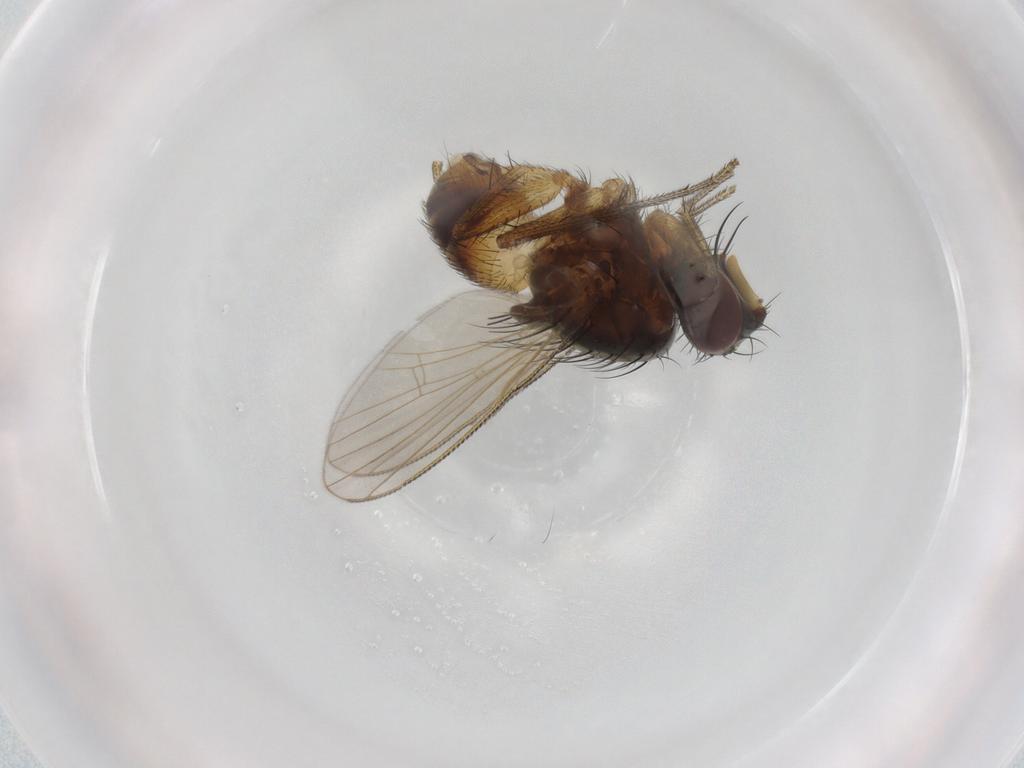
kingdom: Animalia
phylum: Arthropoda
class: Insecta
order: Diptera
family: Muscidae
